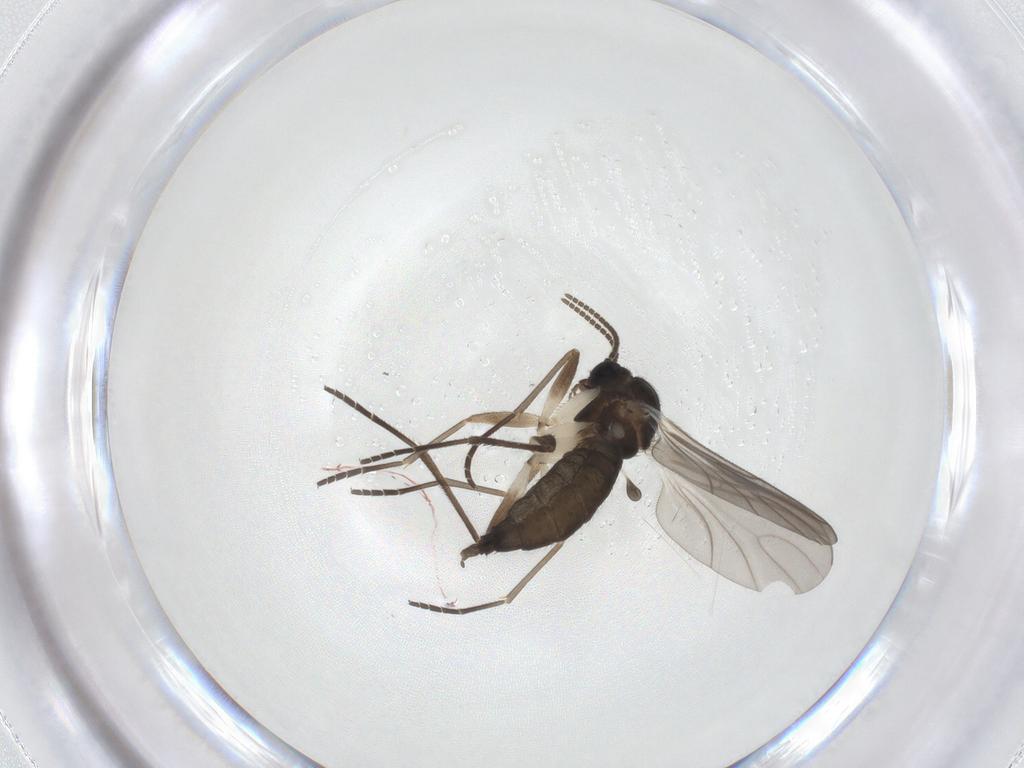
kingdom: Animalia
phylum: Arthropoda
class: Insecta
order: Diptera
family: Sciaridae
